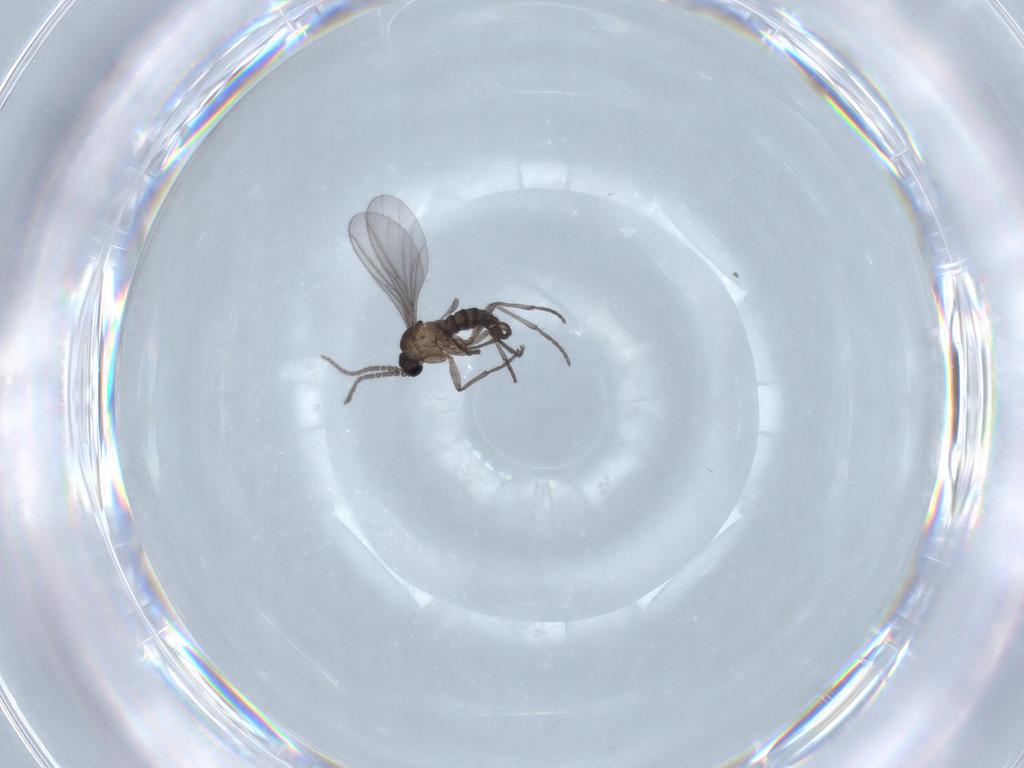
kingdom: Animalia
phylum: Arthropoda
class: Insecta
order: Diptera
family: Sciaridae
